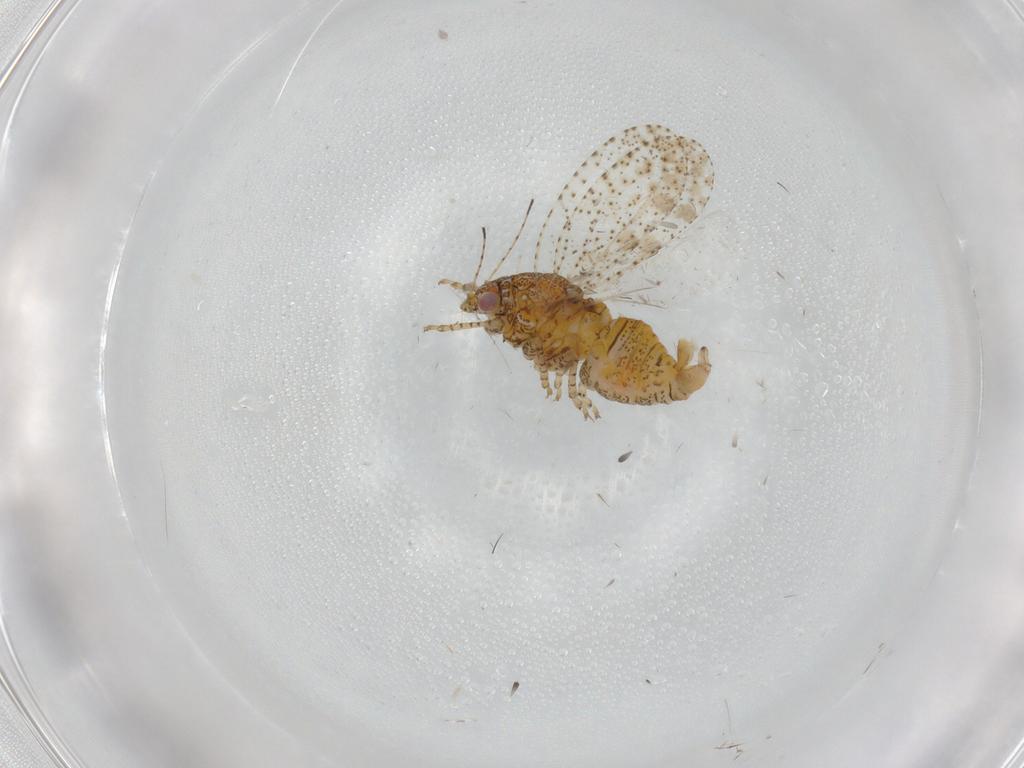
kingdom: Animalia
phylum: Arthropoda
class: Insecta
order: Hemiptera
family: Psyllidae
